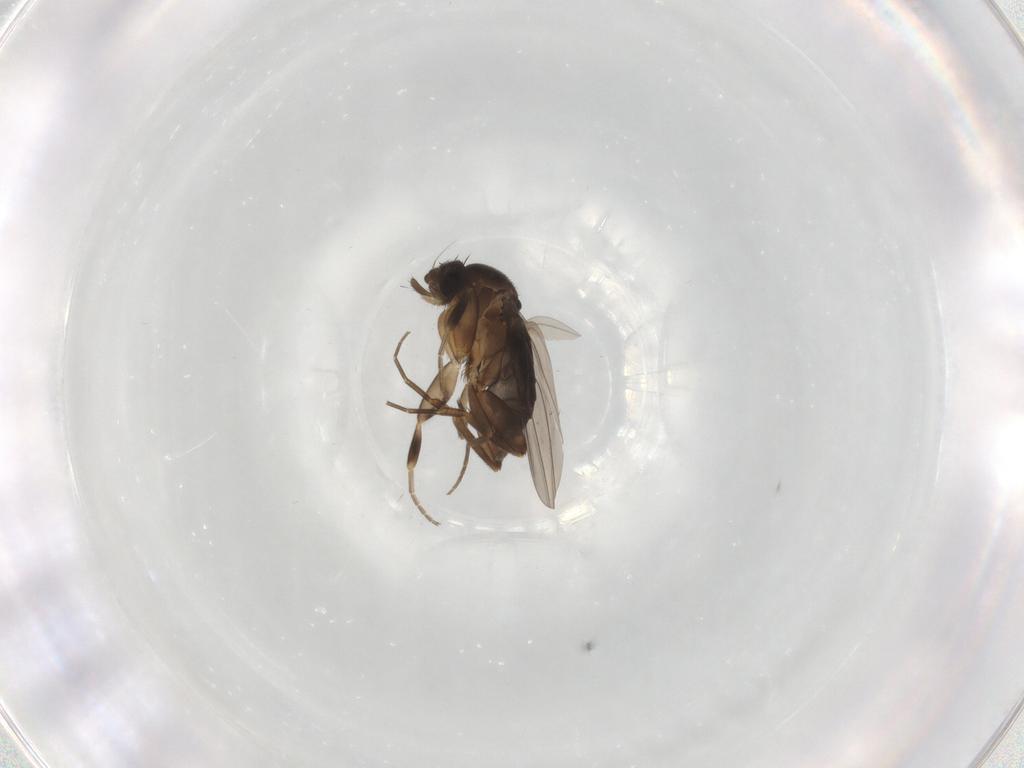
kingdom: Animalia
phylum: Arthropoda
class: Insecta
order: Diptera
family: Phoridae
